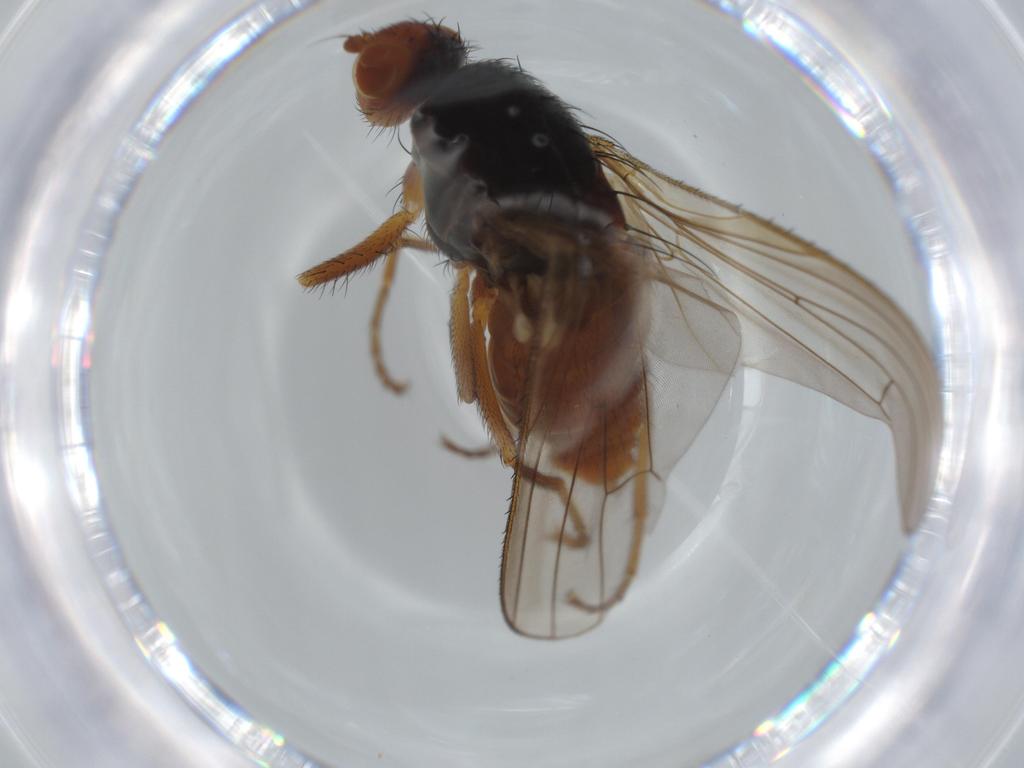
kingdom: Animalia
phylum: Arthropoda
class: Insecta
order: Diptera
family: Heleomyzidae
